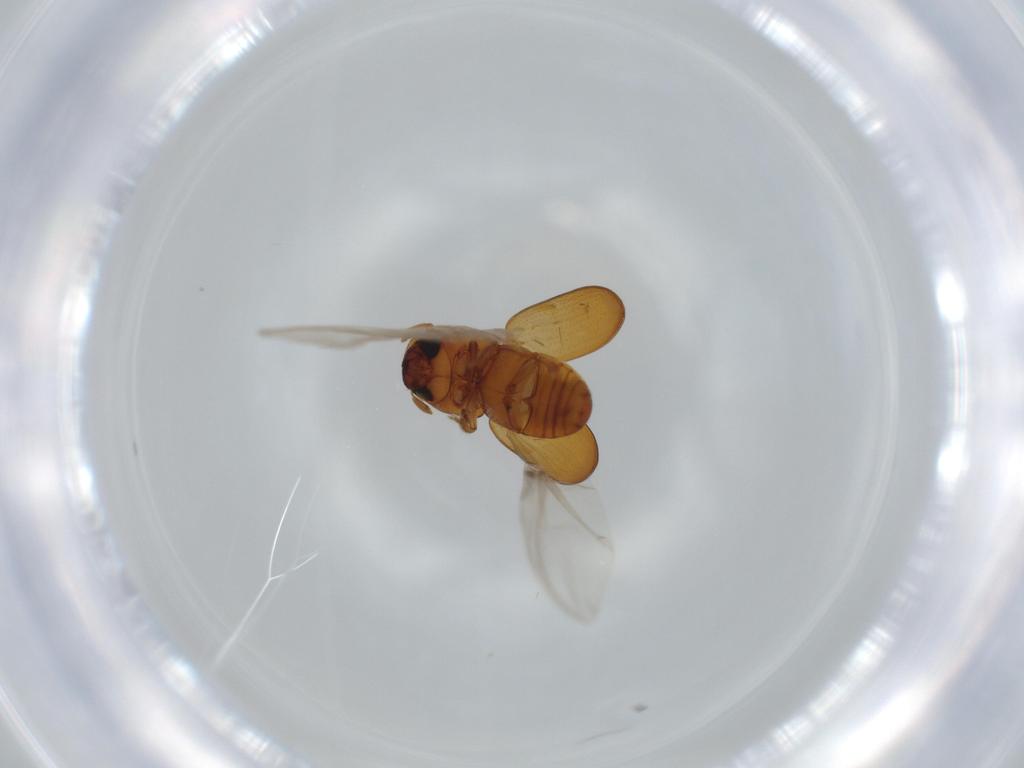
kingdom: Animalia
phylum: Arthropoda
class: Insecta
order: Coleoptera
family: Curculionidae
